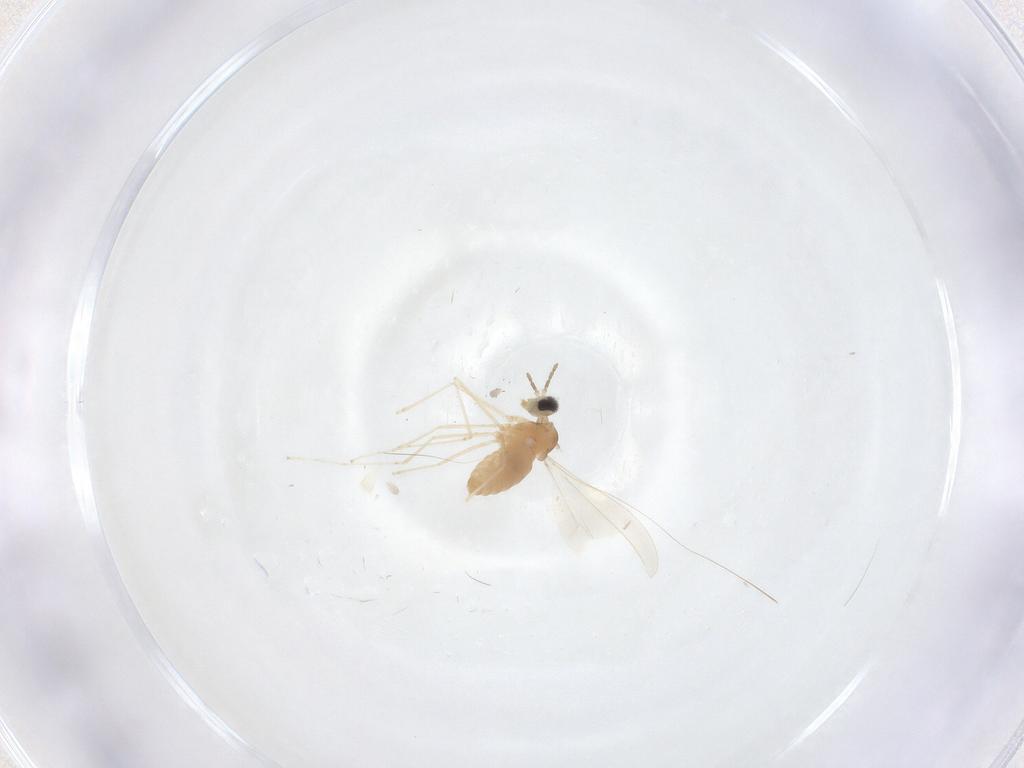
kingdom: Animalia
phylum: Arthropoda
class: Insecta
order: Diptera
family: Cecidomyiidae
